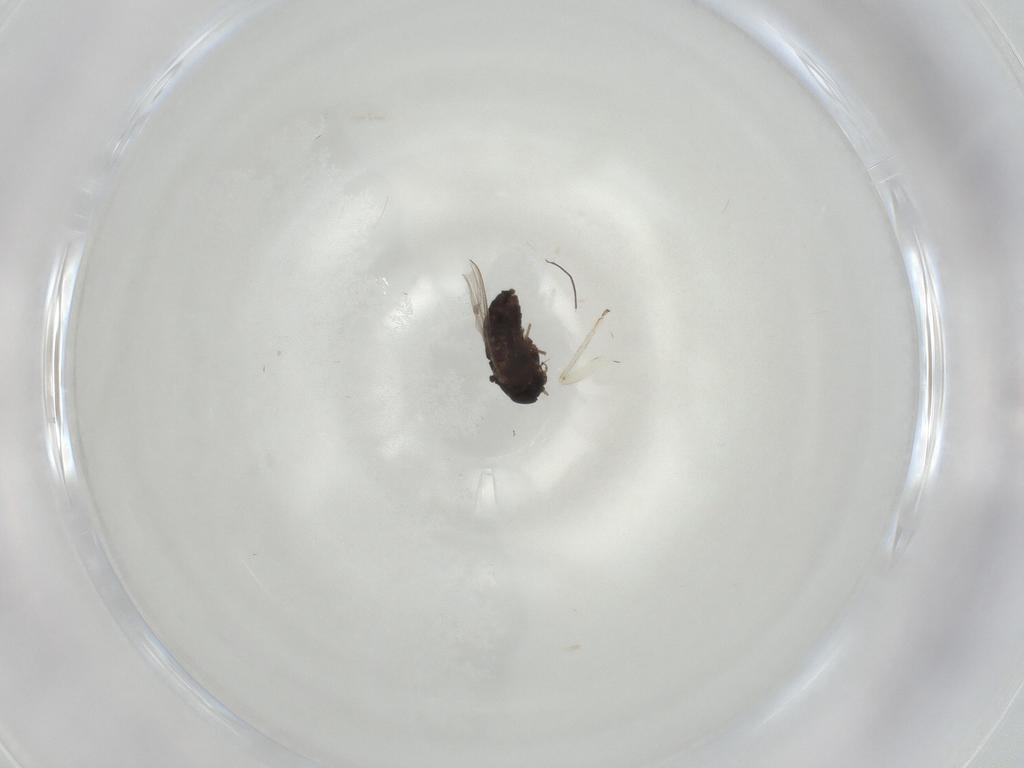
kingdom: Animalia
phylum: Arthropoda
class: Insecta
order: Diptera
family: Chironomidae
